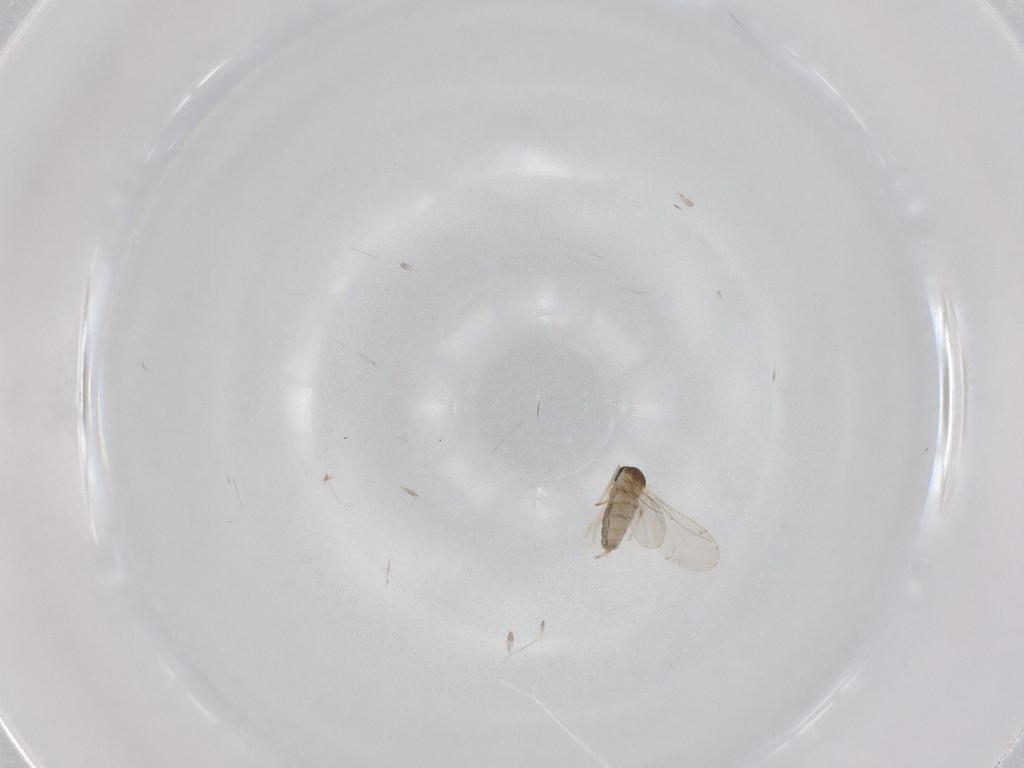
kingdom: Animalia
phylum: Arthropoda
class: Insecta
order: Diptera
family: Cecidomyiidae
